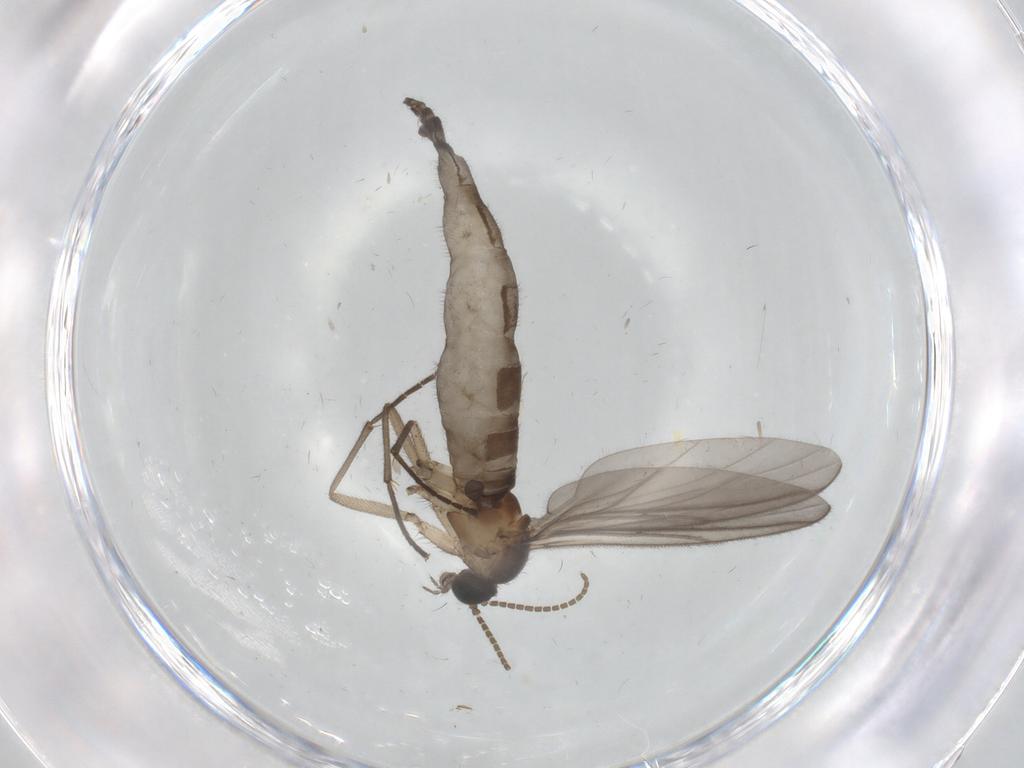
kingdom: Animalia
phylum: Arthropoda
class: Insecta
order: Diptera
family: Cecidomyiidae
